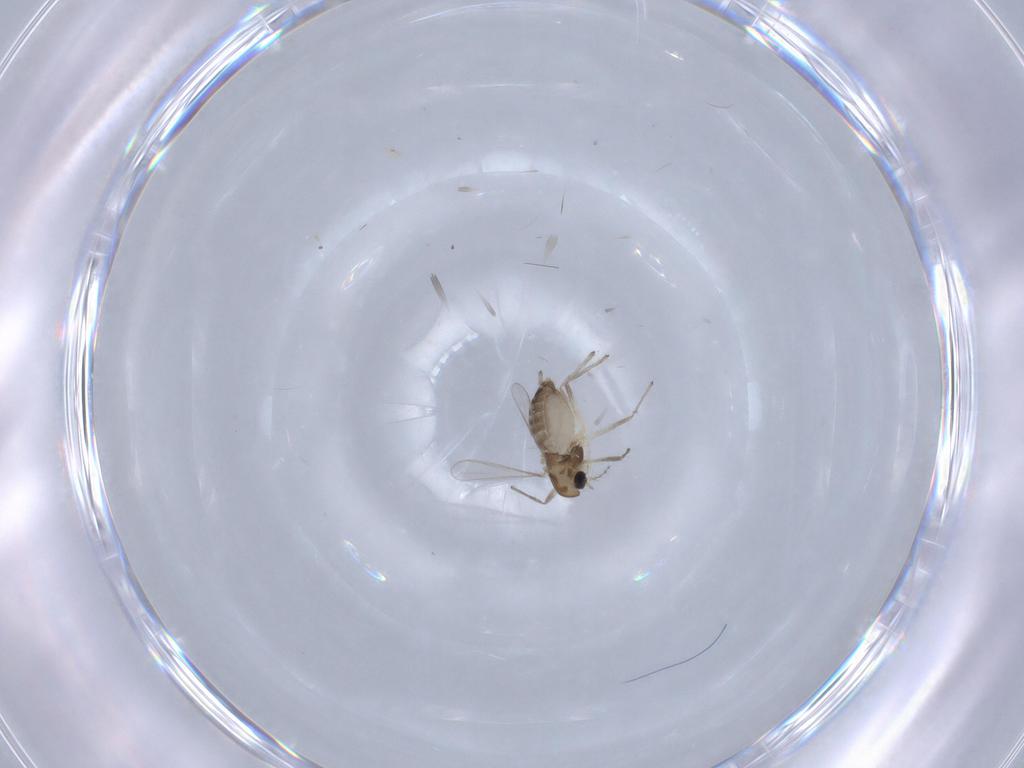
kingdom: Animalia
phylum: Arthropoda
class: Insecta
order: Diptera
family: Chironomidae
